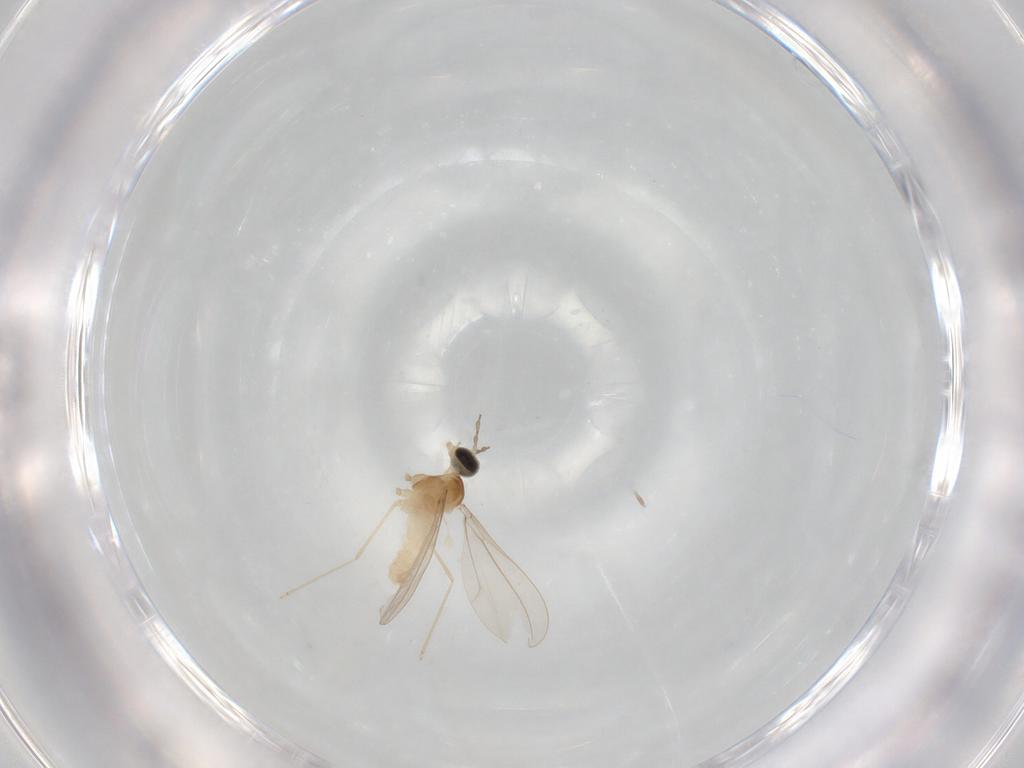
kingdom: Animalia
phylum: Arthropoda
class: Insecta
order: Diptera
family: Cecidomyiidae
